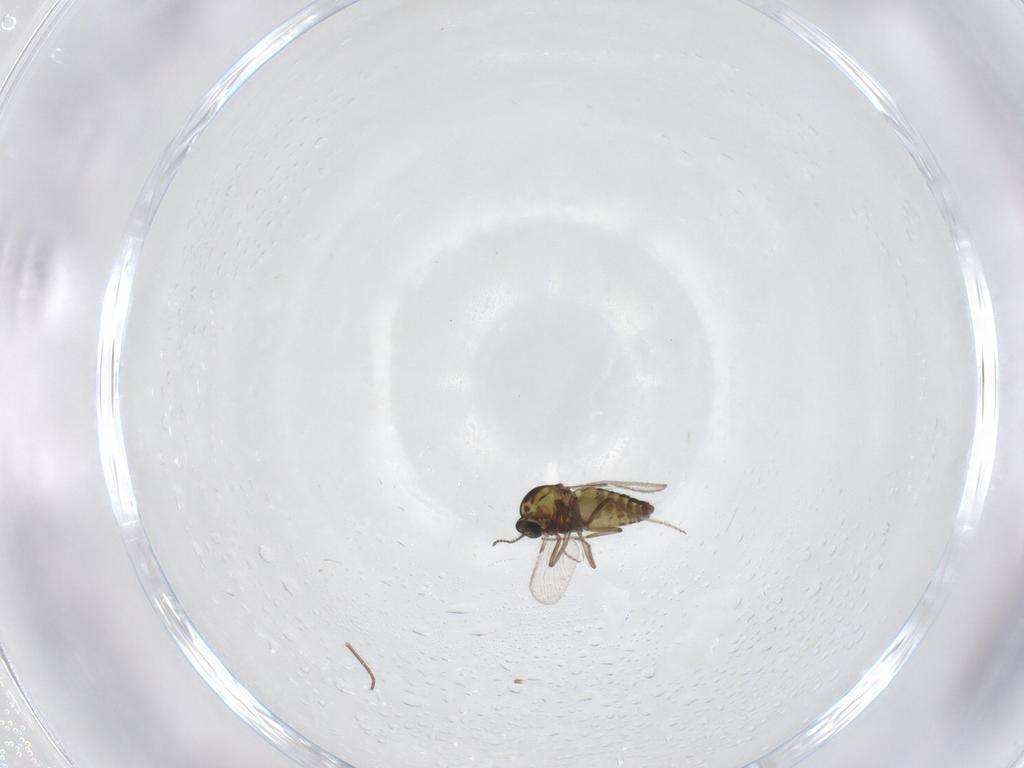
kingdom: Animalia
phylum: Arthropoda
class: Insecta
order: Diptera
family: Ceratopogonidae
